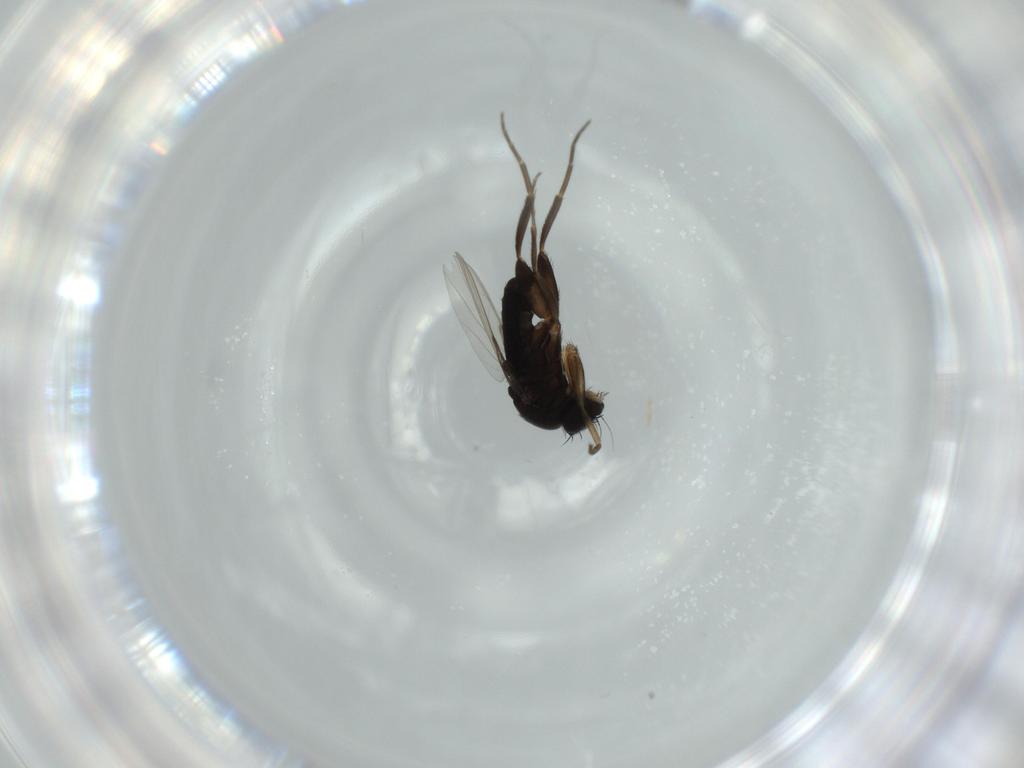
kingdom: Animalia
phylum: Arthropoda
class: Insecta
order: Diptera
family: Phoridae
